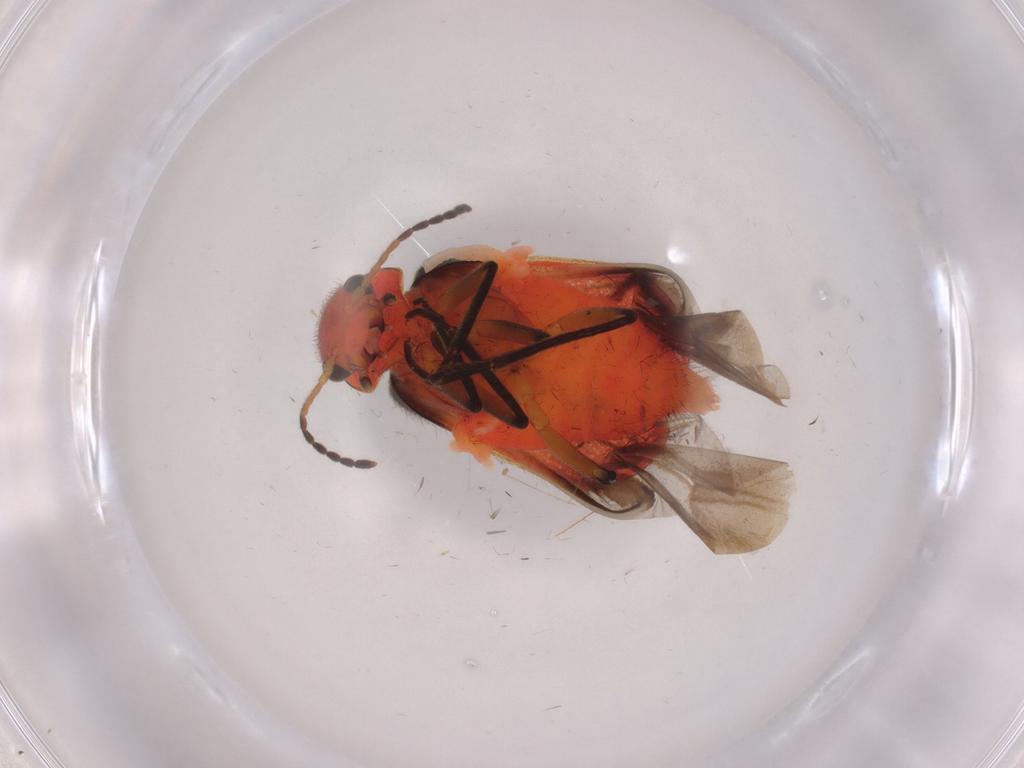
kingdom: Animalia
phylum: Arthropoda
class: Insecta
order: Coleoptera
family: Melyridae
